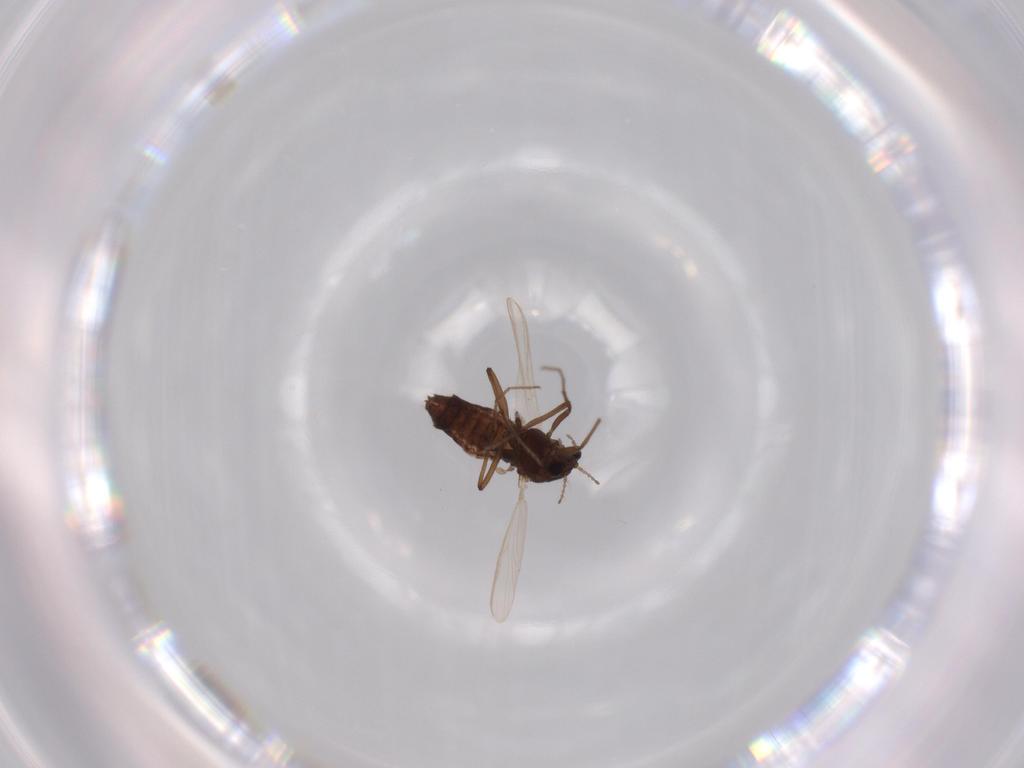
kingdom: Animalia
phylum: Arthropoda
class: Insecta
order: Diptera
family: Chironomidae
